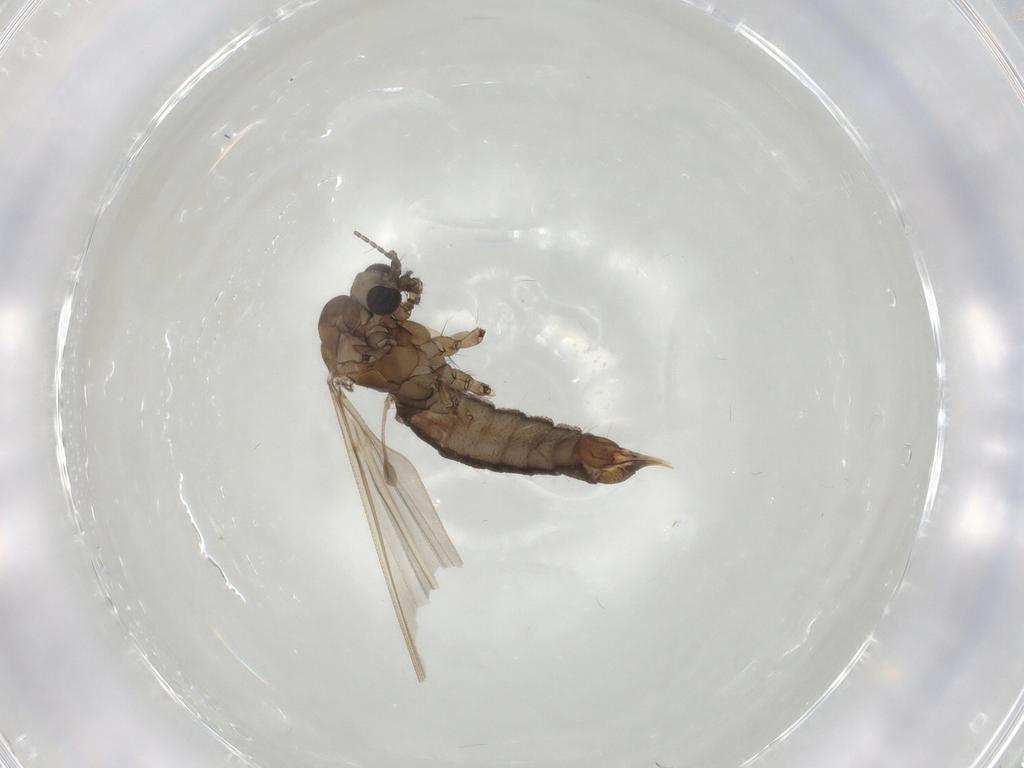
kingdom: Animalia
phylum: Arthropoda
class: Insecta
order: Diptera
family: Limoniidae
